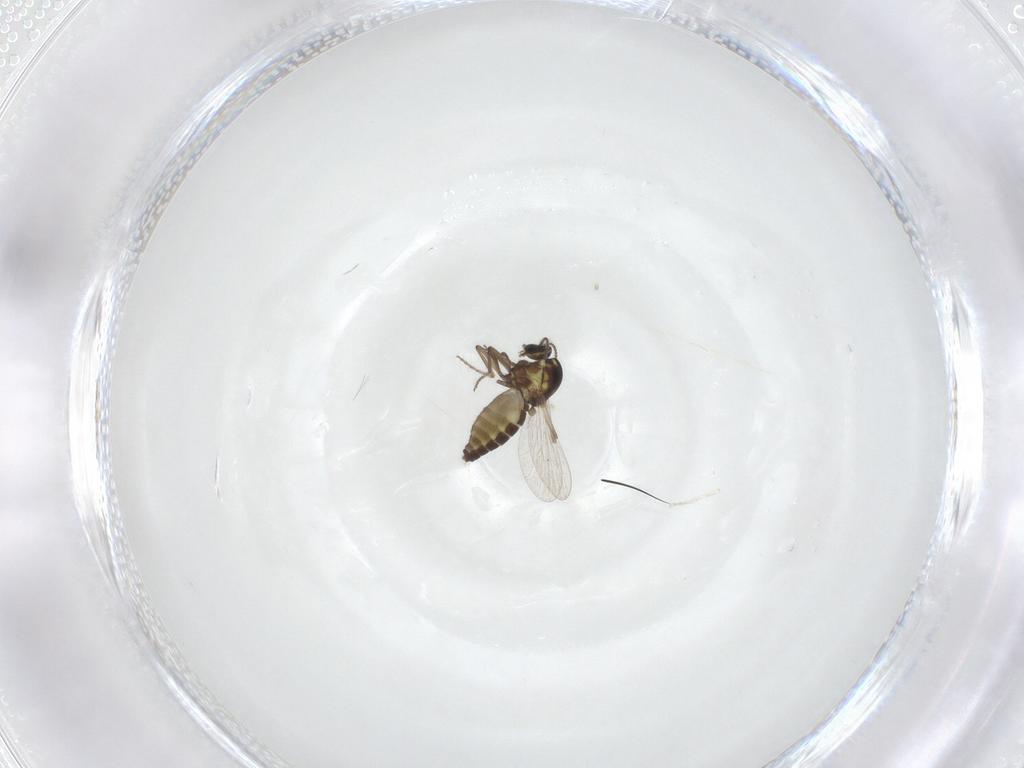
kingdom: Animalia
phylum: Arthropoda
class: Insecta
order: Diptera
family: Ceratopogonidae
